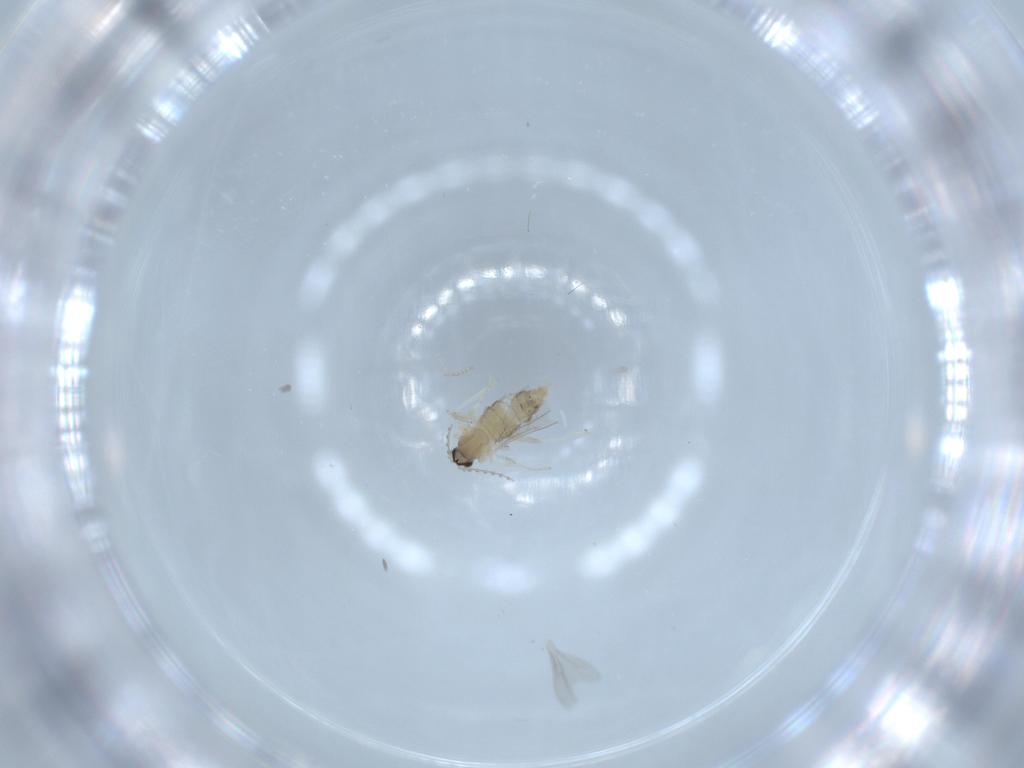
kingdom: Animalia
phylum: Arthropoda
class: Insecta
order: Diptera
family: Cecidomyiidae
